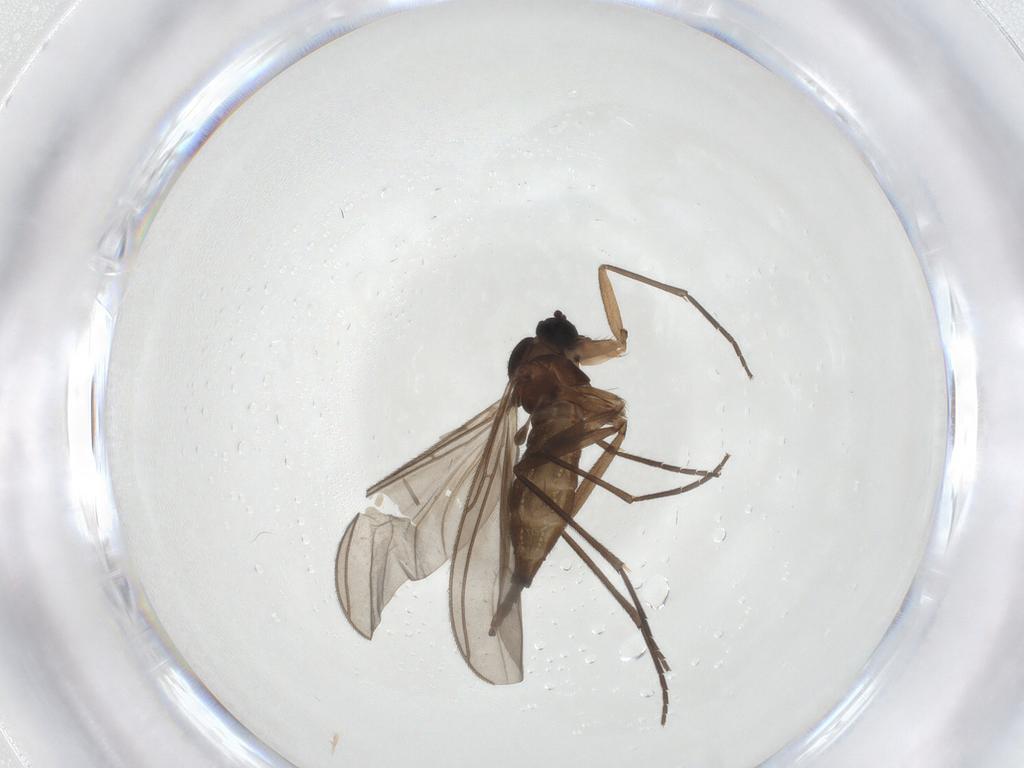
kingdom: Animalia
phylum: Arthropoda
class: Insecta
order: Diptera
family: Sciaridae
